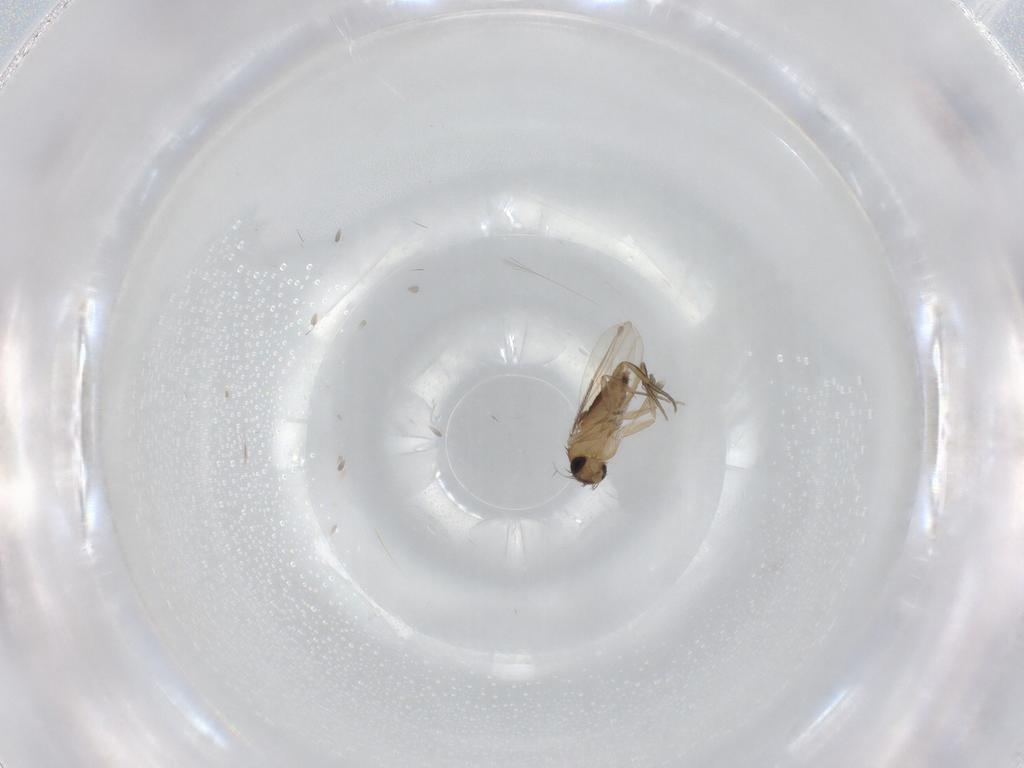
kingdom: Animalia
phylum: Arthropoda
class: Insecta
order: Diptera
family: Phoridae
